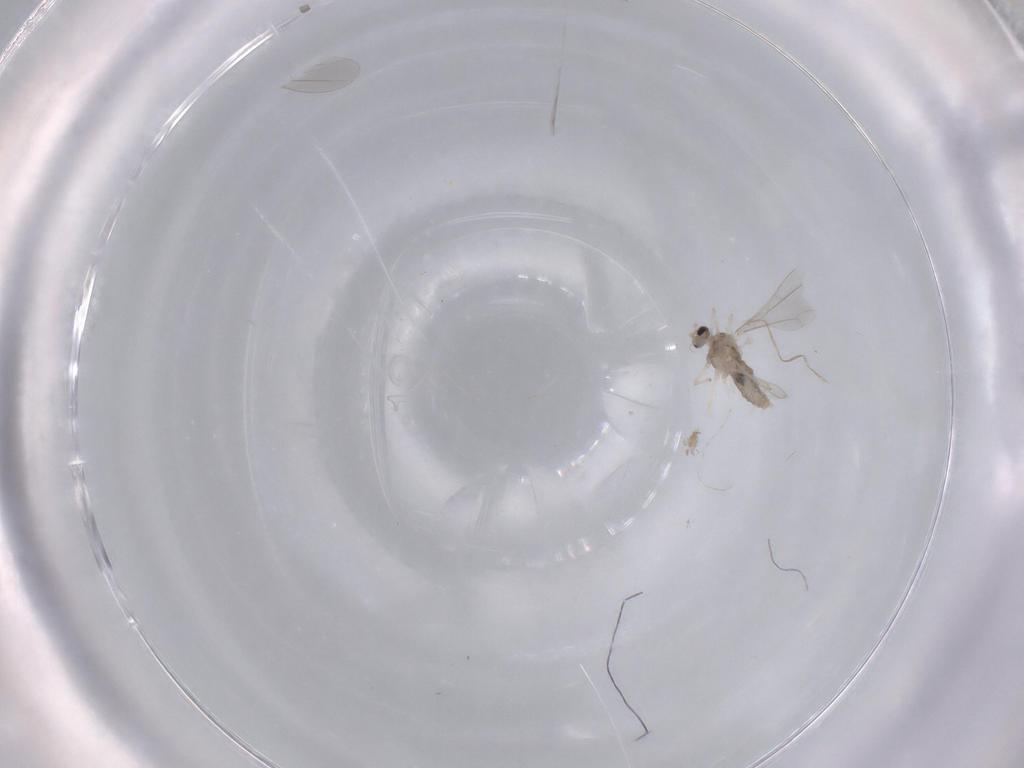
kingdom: Animalia
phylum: Arthropoda
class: Insecta
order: Diptera
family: Cecidomyiidae
